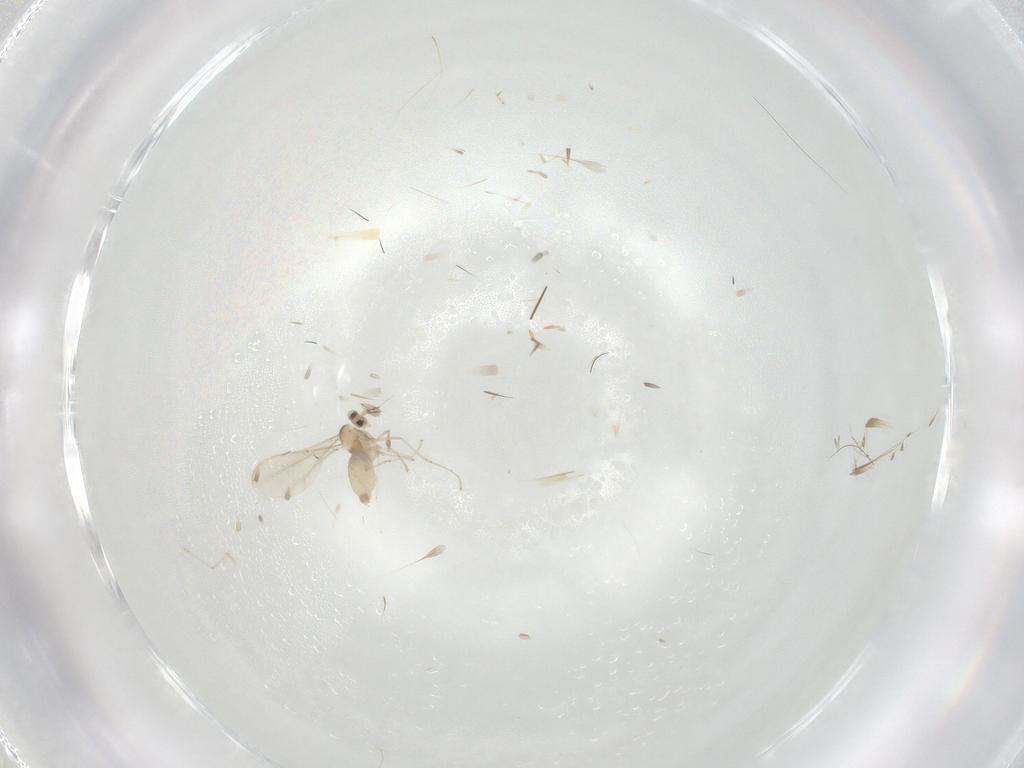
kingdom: Animalia
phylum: Arthropoda
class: Insecta
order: Diptera
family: Cecidomyiidae
